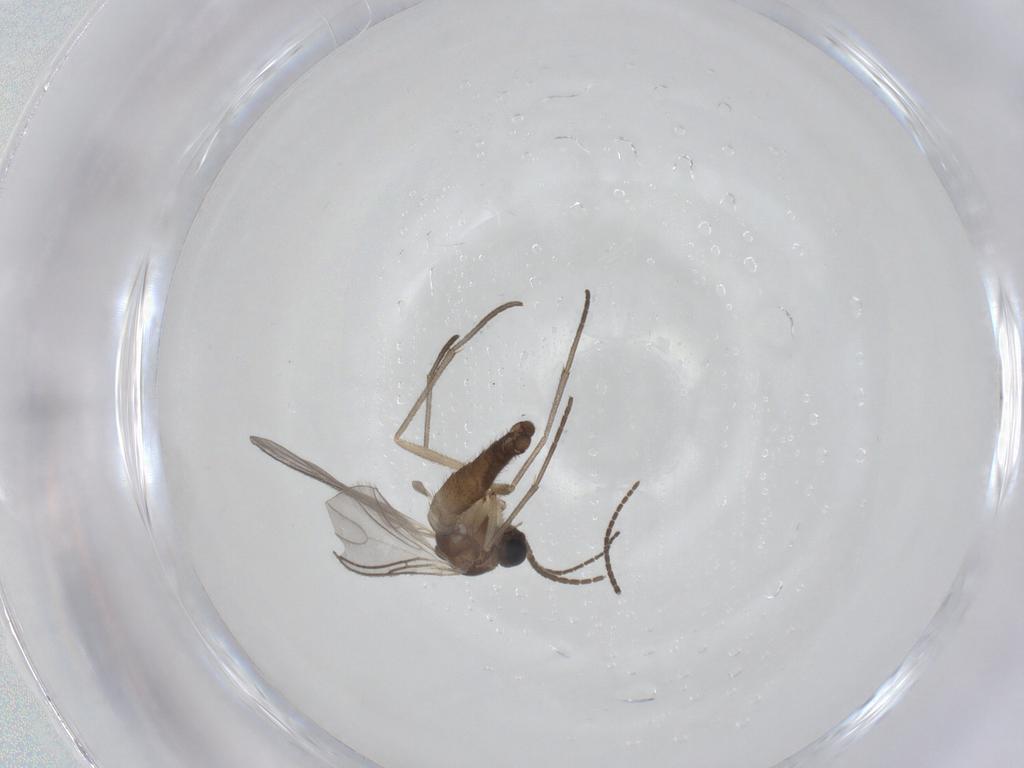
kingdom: Animalia
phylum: Arthropoda
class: Insecta
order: Diptera
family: Sciaridae
